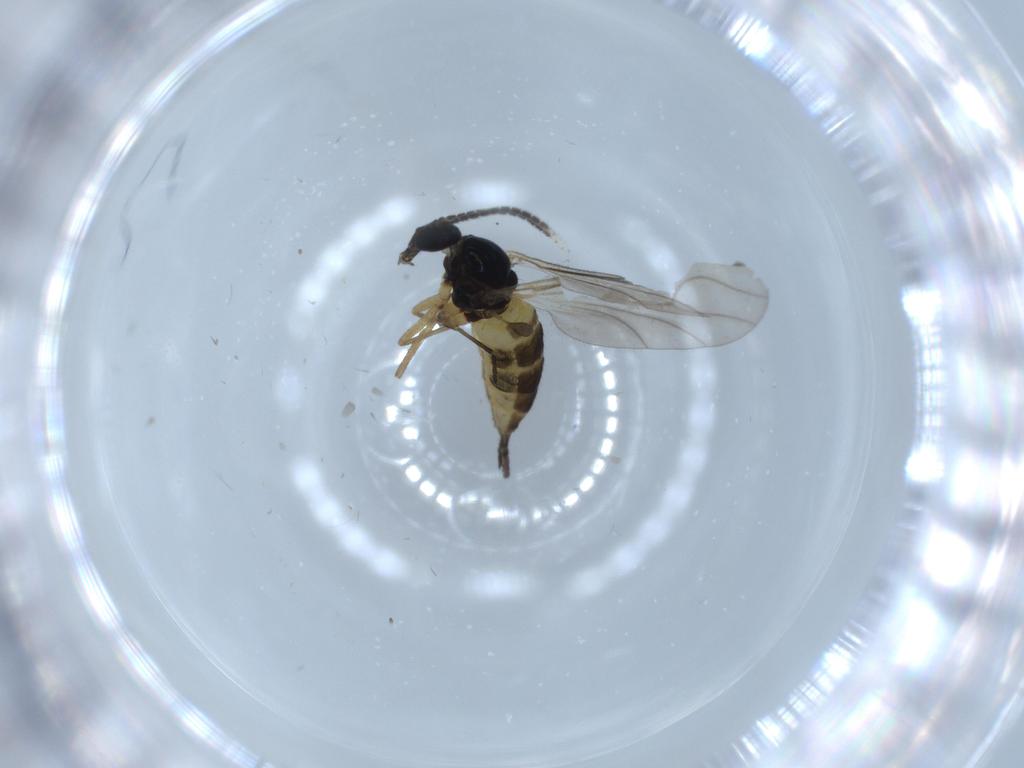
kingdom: Animalia
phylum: Arthropoda
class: Insecta
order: Diptera
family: Sciaridae
